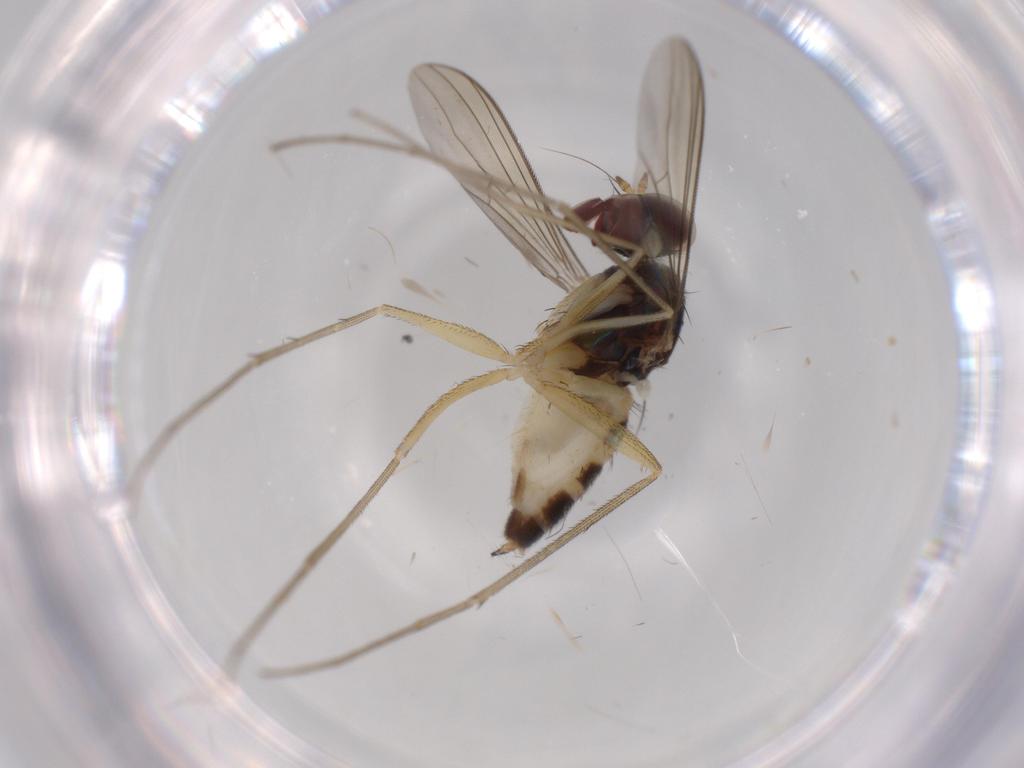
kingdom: Animalia
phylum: Arthropoda
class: Insecta
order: Diptera
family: Dolichopodidae
